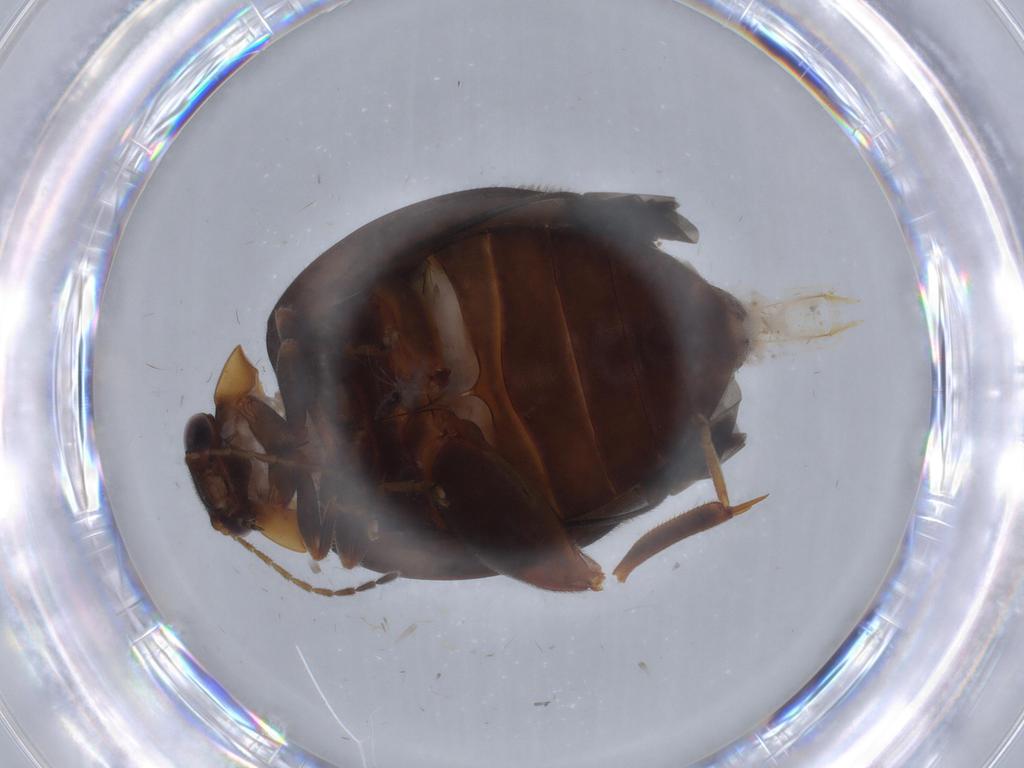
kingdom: Animalia
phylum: Arthropoda
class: Insecta
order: Coleoptera
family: Scirtidae
